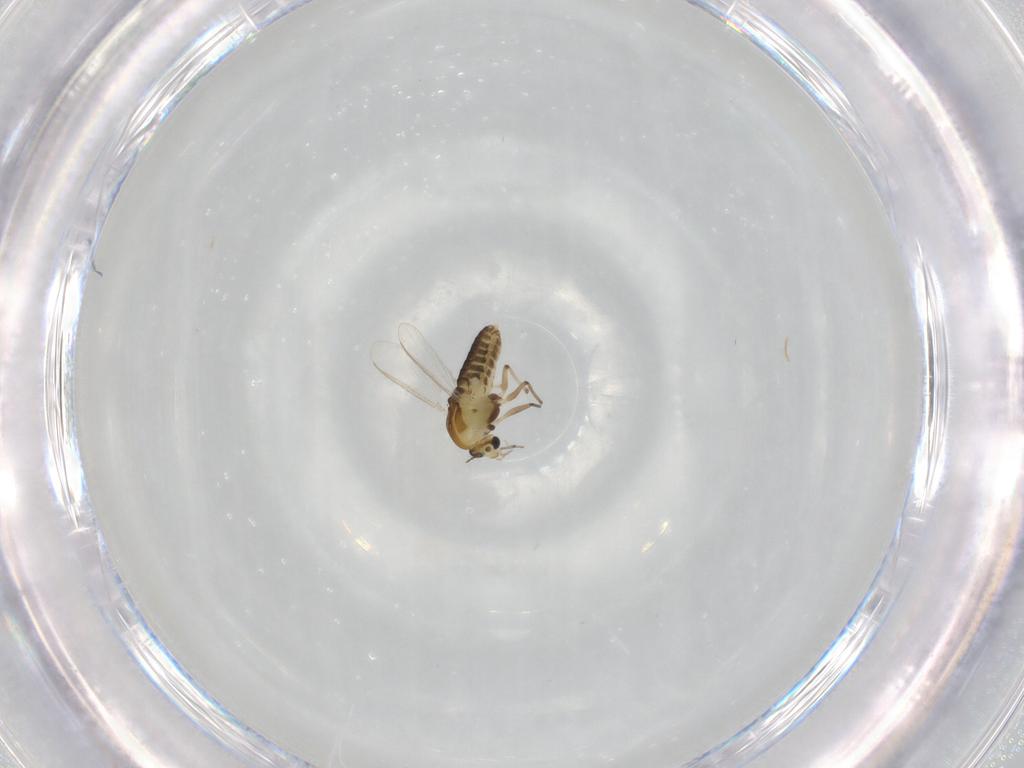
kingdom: Animalia
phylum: Arthropoda
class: Insecta
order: Diptera
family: Chironomidae
